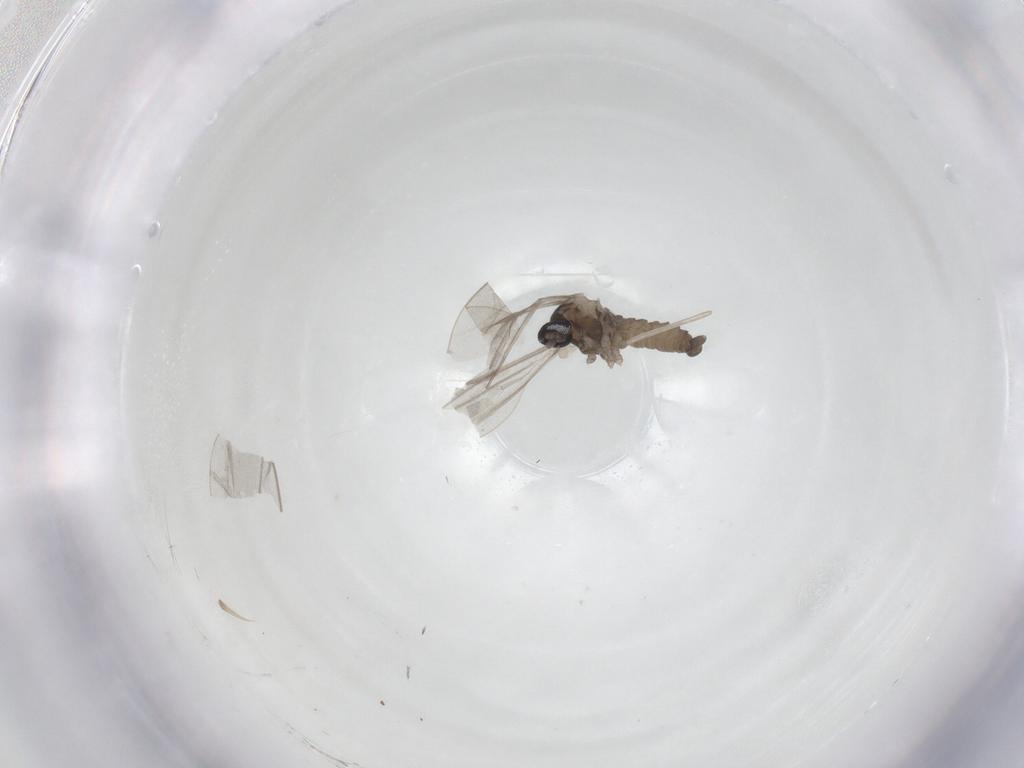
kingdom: Animalia
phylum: Arthropoda
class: Insecta
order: Diptera
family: Cecidomyiidae
